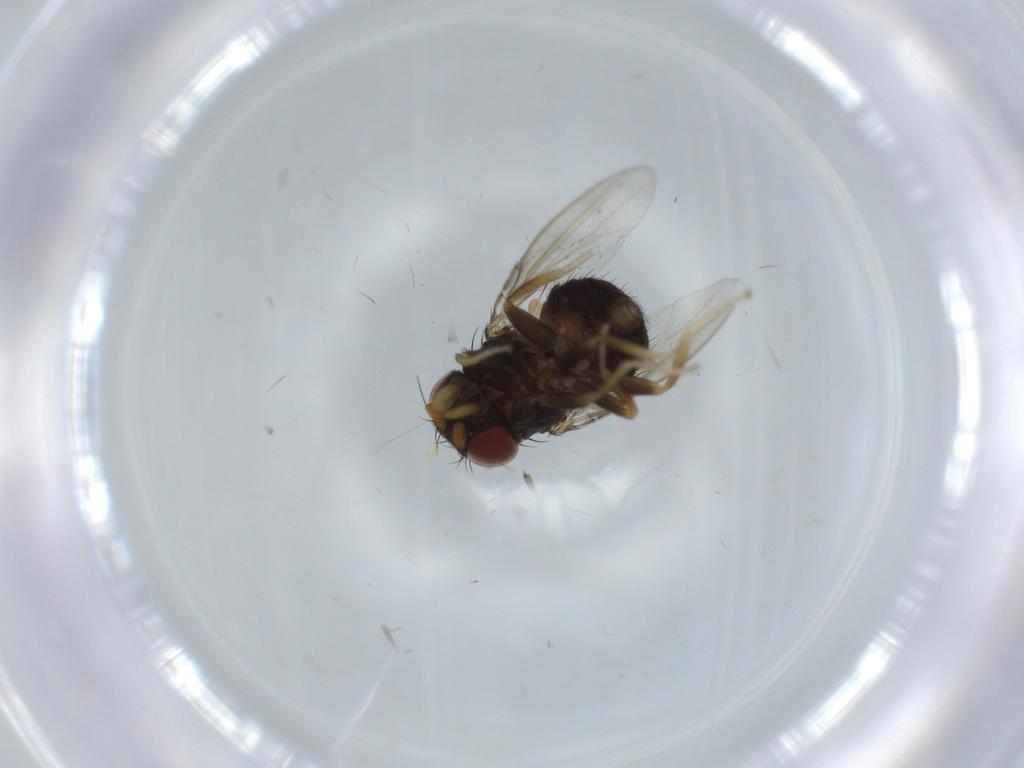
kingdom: Animalia
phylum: Arthropoda
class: Insecta
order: Diptera
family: Milichiidae
